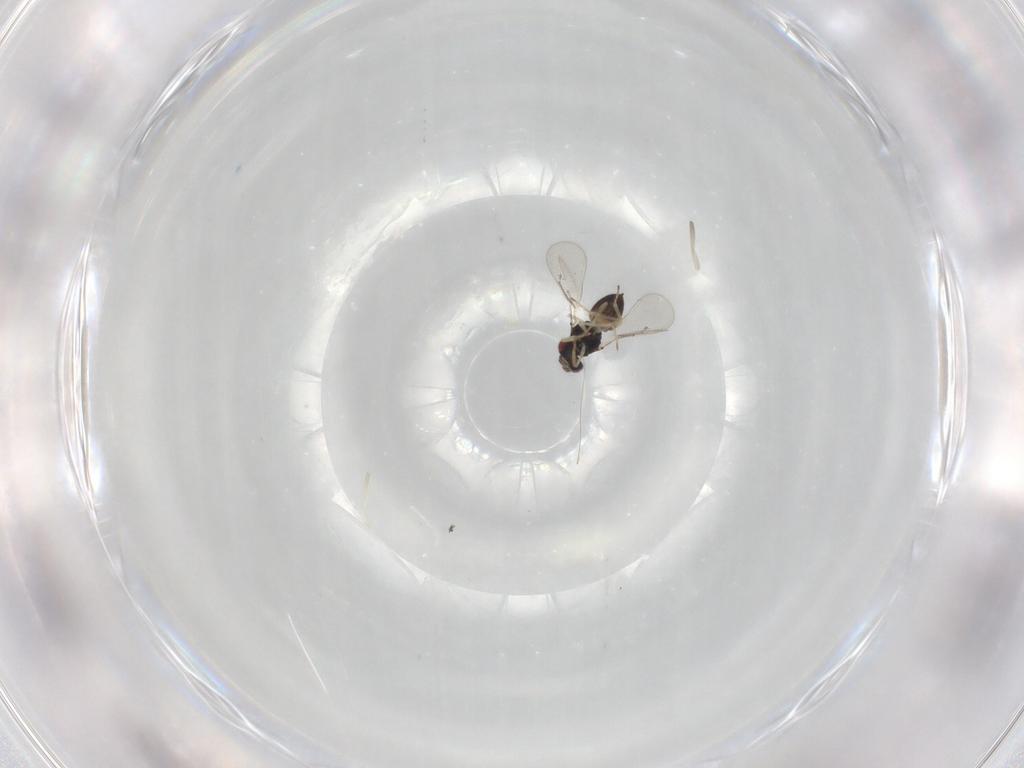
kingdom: Animalia
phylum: Arthropoda
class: Insecta
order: Hymenoptera
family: Eulophidae
